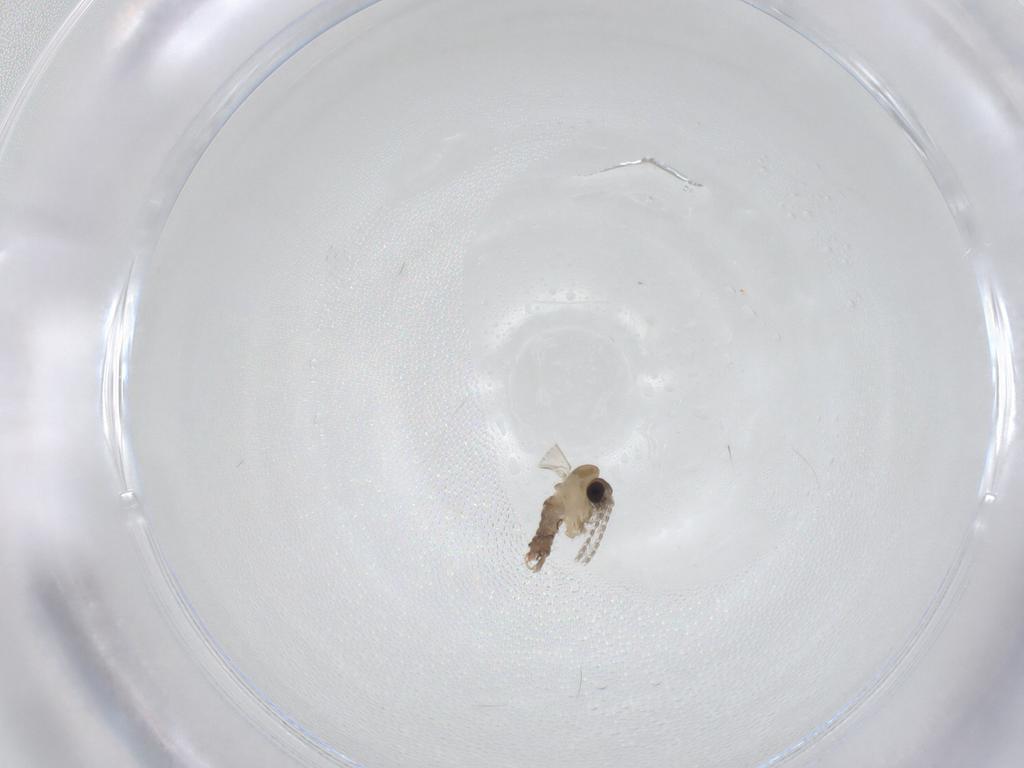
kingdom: Animalia
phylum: Arthropoda
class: Insecta
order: Diptera
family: Psychodidae
